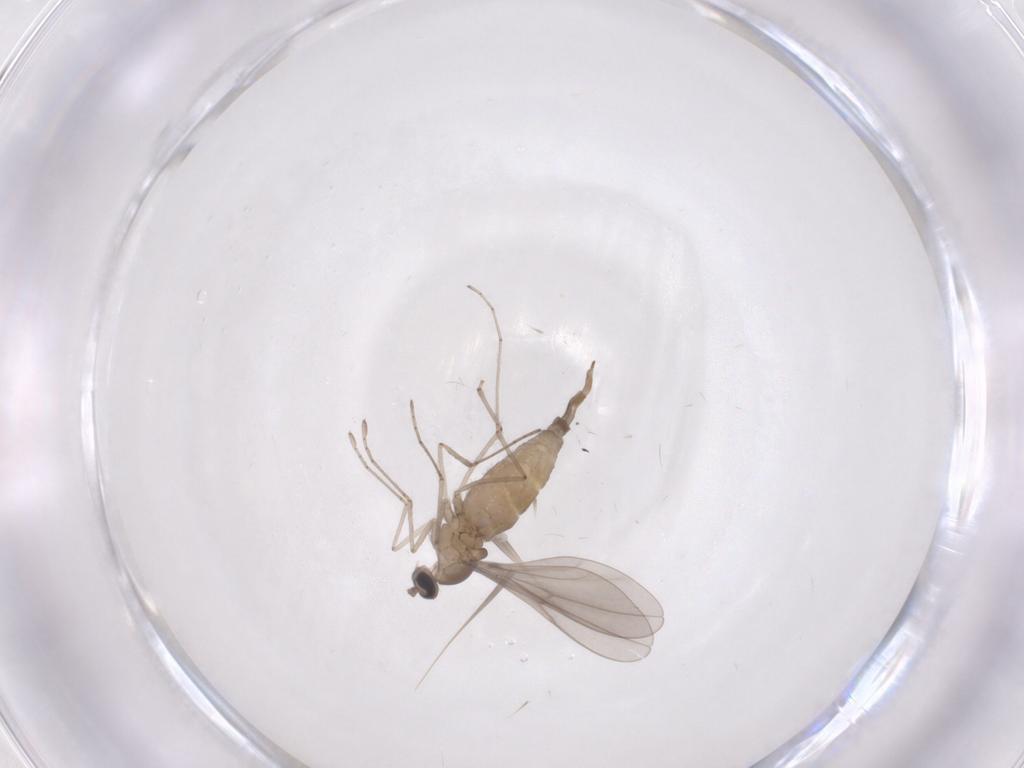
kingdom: Animalia
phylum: Arthropoda
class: Insecta
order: Diptera
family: Cecidomyiidae
